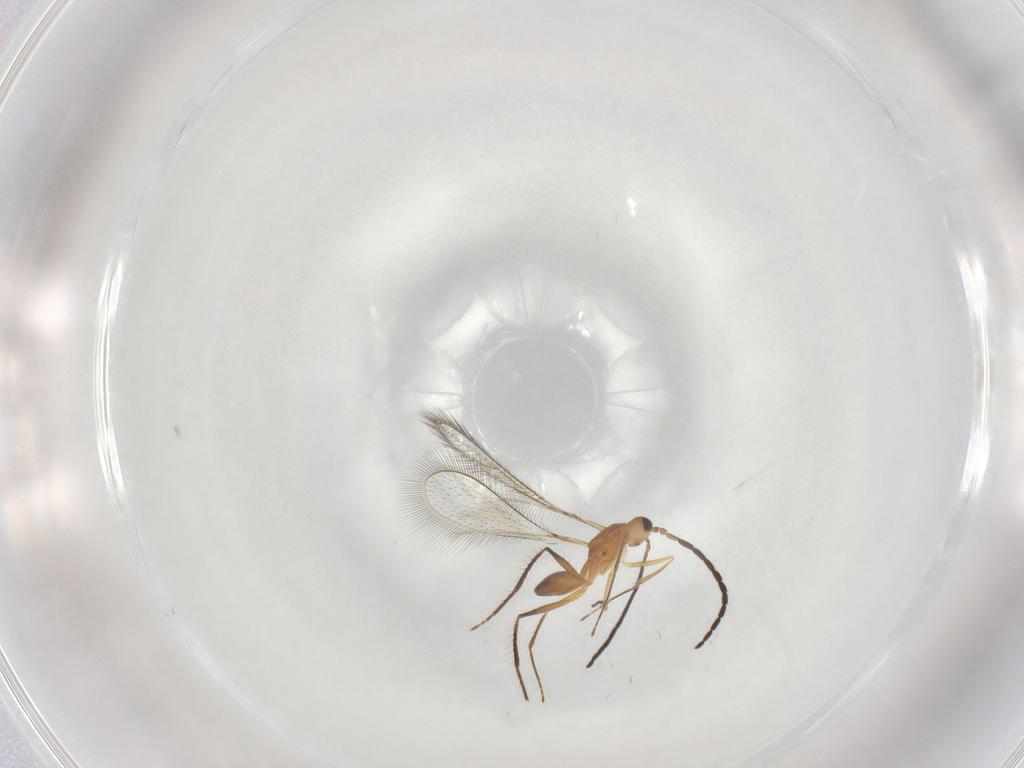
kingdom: Animalia
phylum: Arthropoda
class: Insecta
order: Hymenoptera
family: Mymaridae
